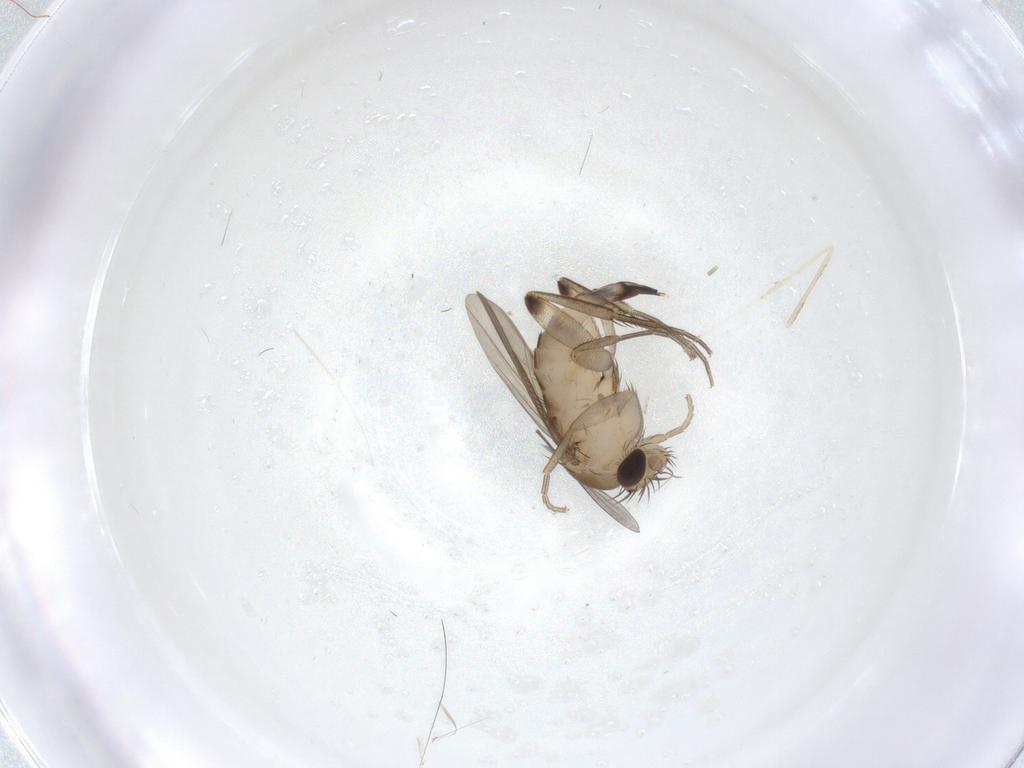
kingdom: Animalia
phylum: Arthropoda
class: Insecta
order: Diptera
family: Phoridae
